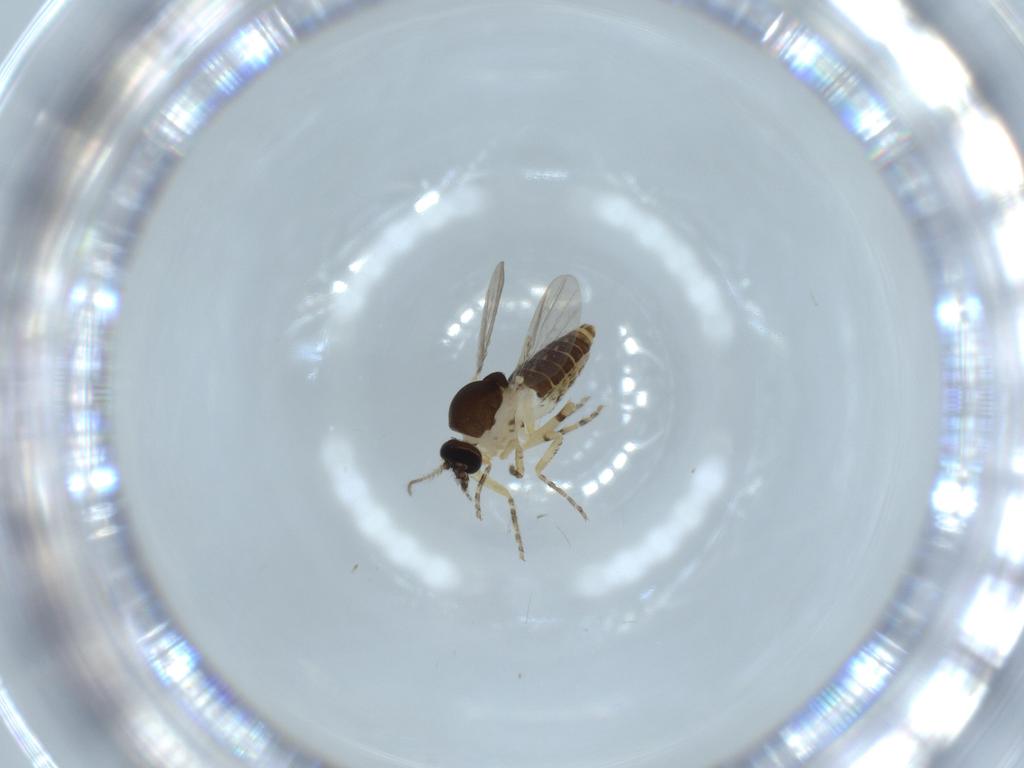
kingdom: Animalia
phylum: Arthropoda
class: Insecta
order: Diptera
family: Ceratopogonidae
